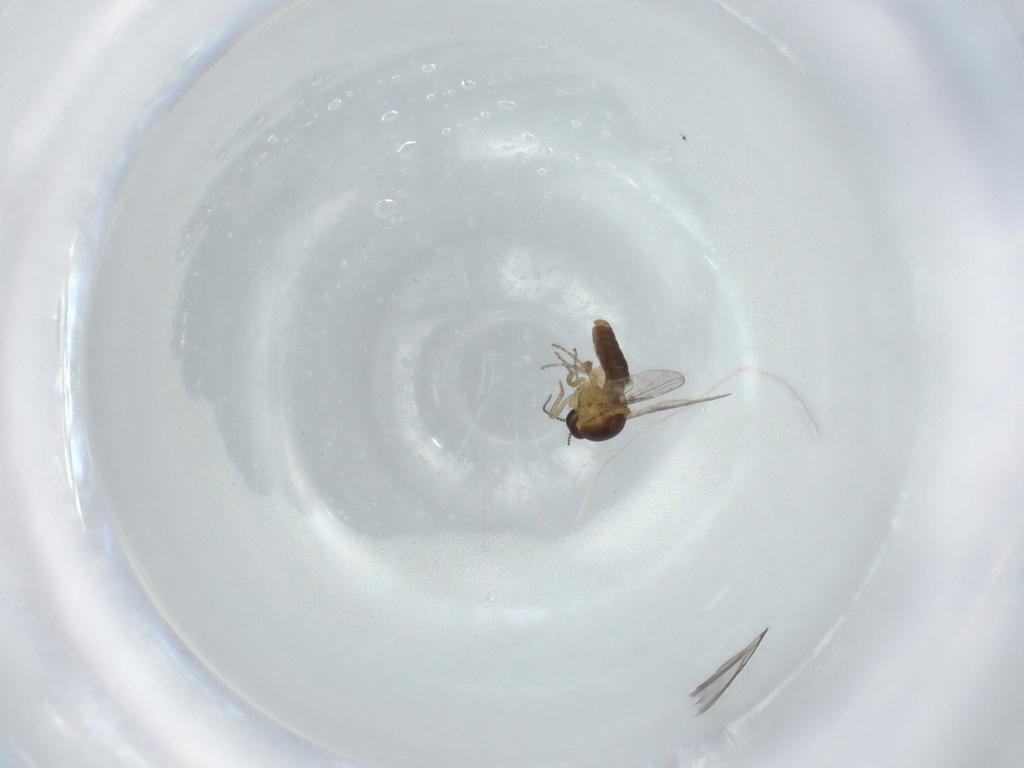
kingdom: Animalia
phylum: Arthropoda
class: Insecta
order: Diptera
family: Ceratopogonidae
